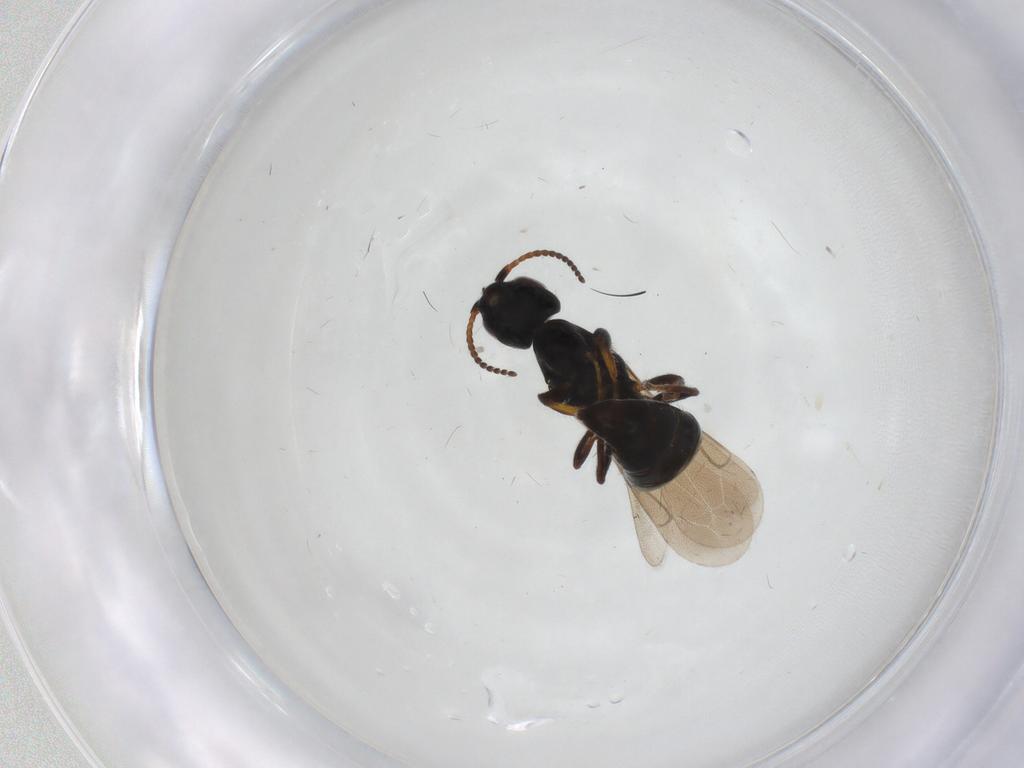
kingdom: Animalia
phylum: Arthropoda
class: Insecta
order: Hymenoptera
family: Bethylidae
